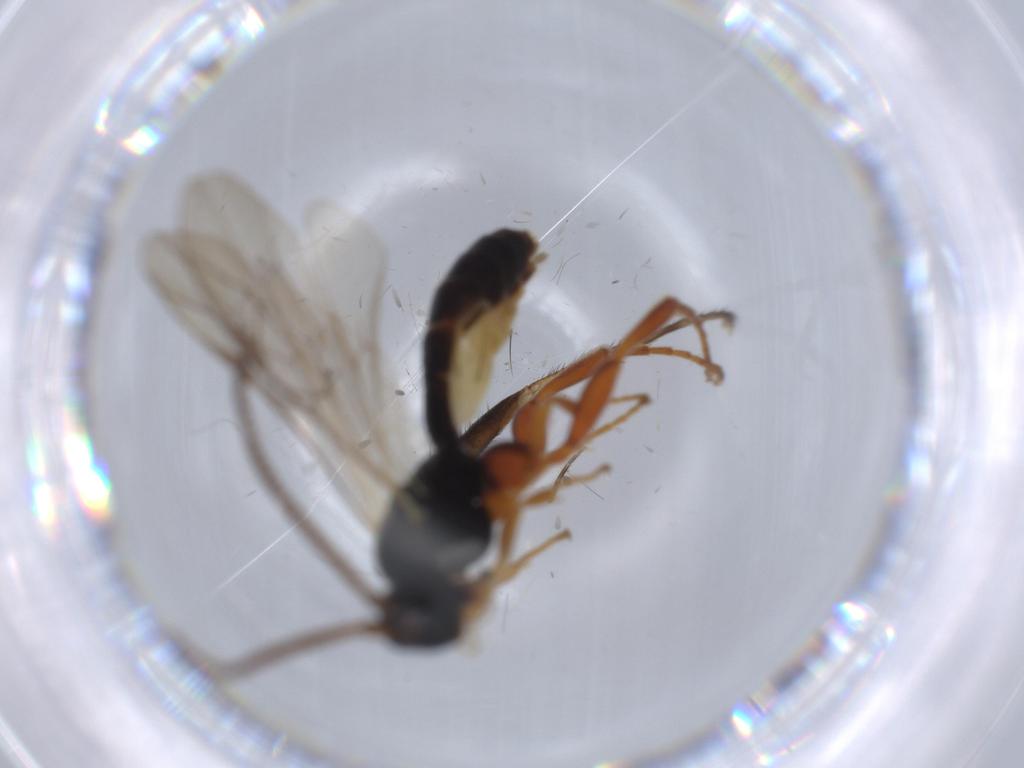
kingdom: Animalia
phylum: Arthropoda
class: Insecta
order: Hymenoptera
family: Ichneumonidae
